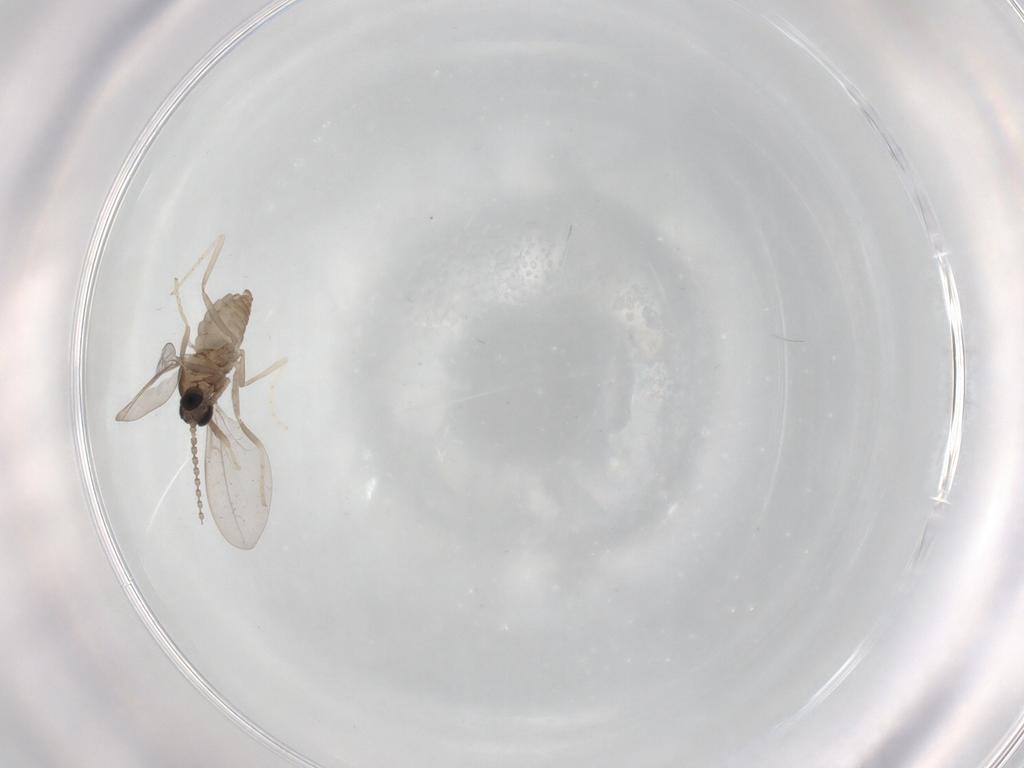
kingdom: Animalia
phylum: Arthropoda
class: Insecta
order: Diptera
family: Cecidomyiidae
